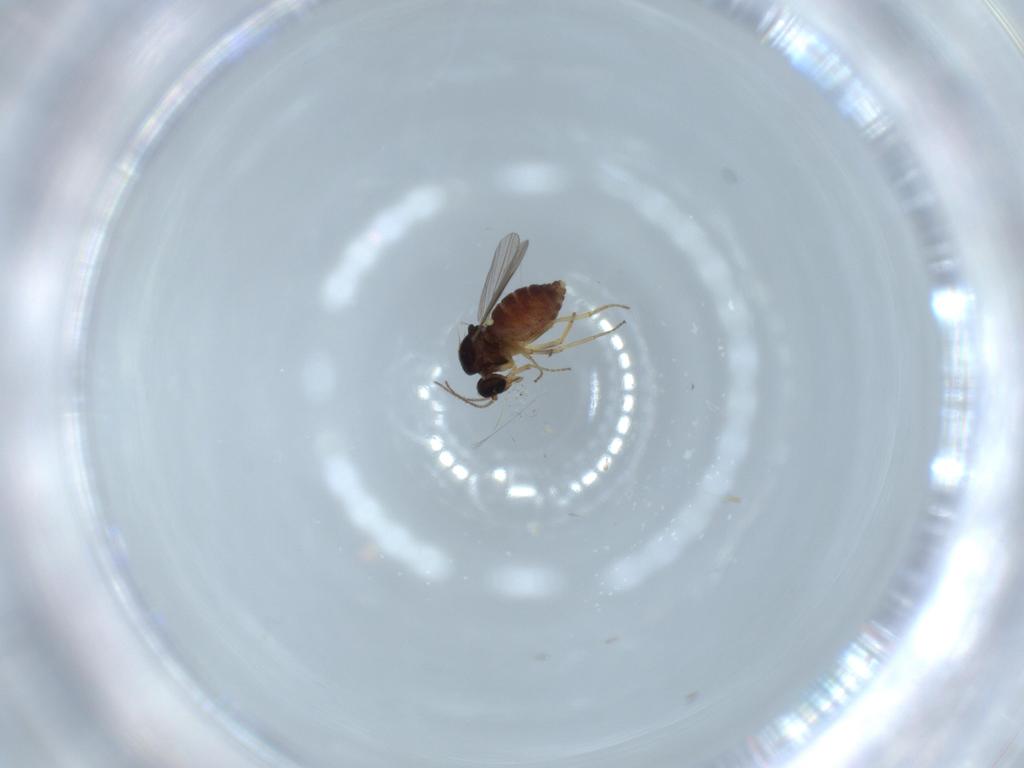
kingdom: Animalia
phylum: Arthropoda
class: Insecta
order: Diptera
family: Ceratopogonidae
